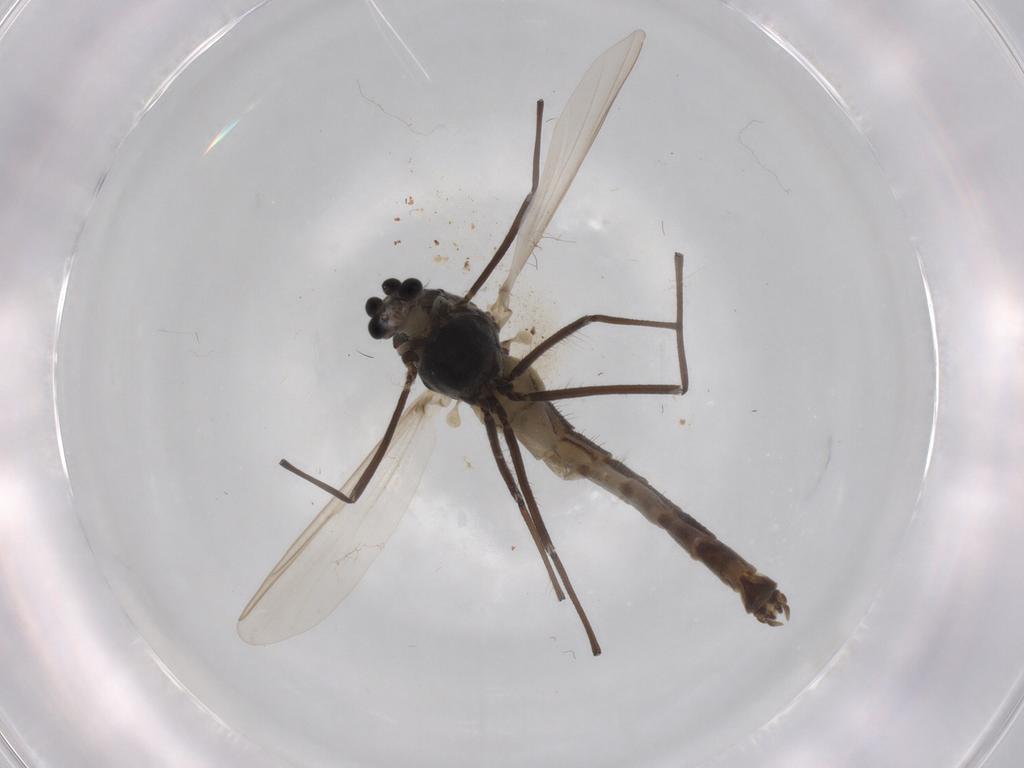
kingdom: Animalia
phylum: Arthropoda
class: Insecta
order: Diptera
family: Chironomidae
